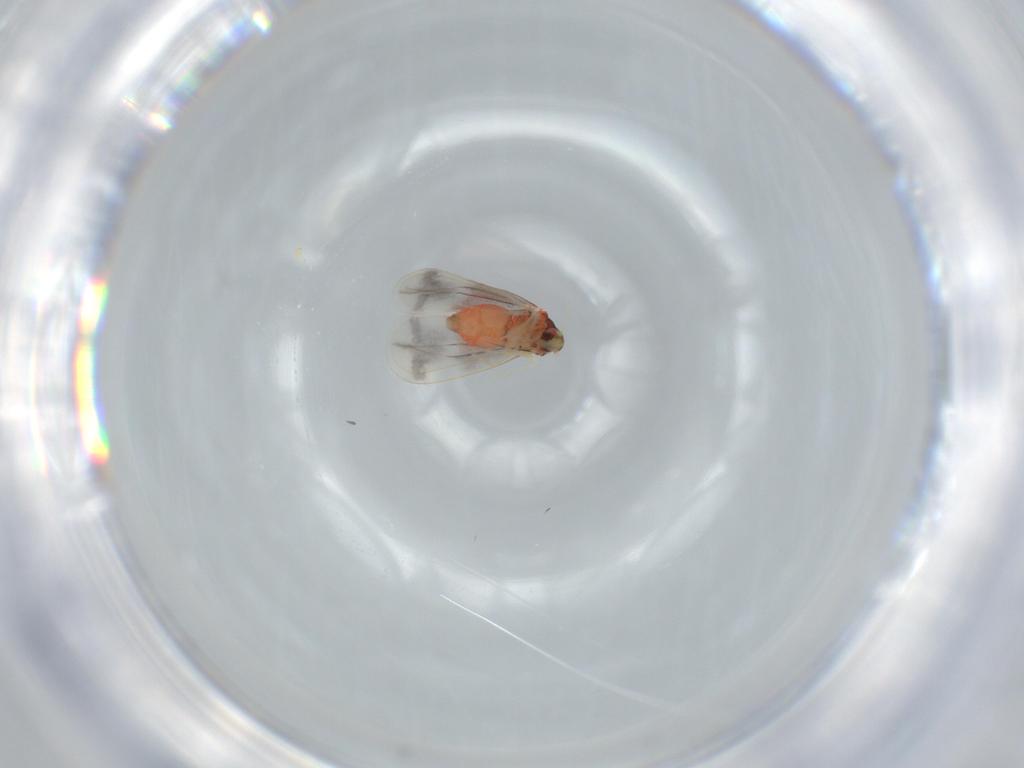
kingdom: Animalia
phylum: Arthropoda
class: Insecta
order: Hemiptera
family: Aleyrodidae
